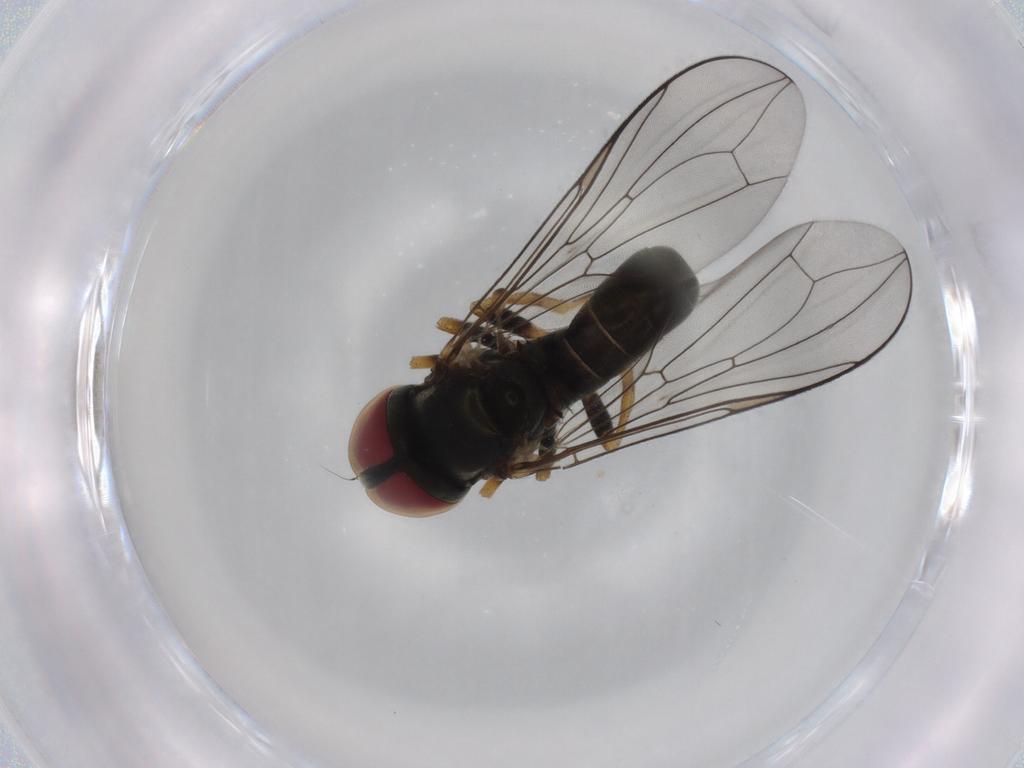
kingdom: Animalia
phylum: Arthropoda
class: Insecta
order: Diptera
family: Pipunculidae
